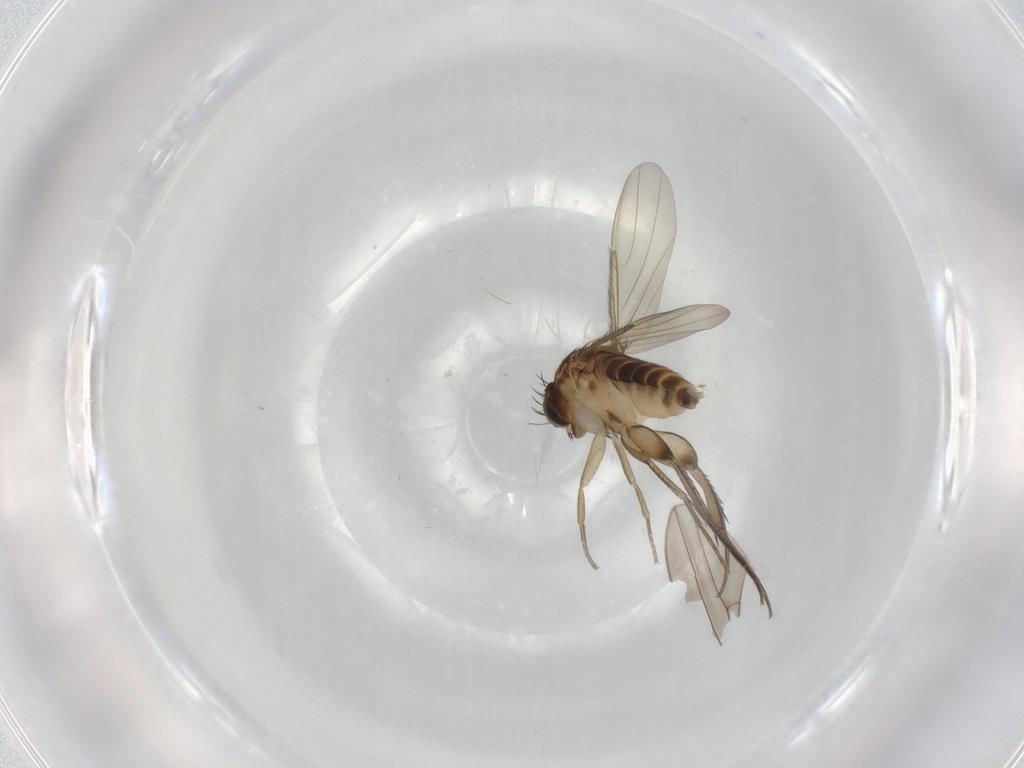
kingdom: Animalia
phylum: Arthropoda
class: Insecta
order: Diptera
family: Phoridae
